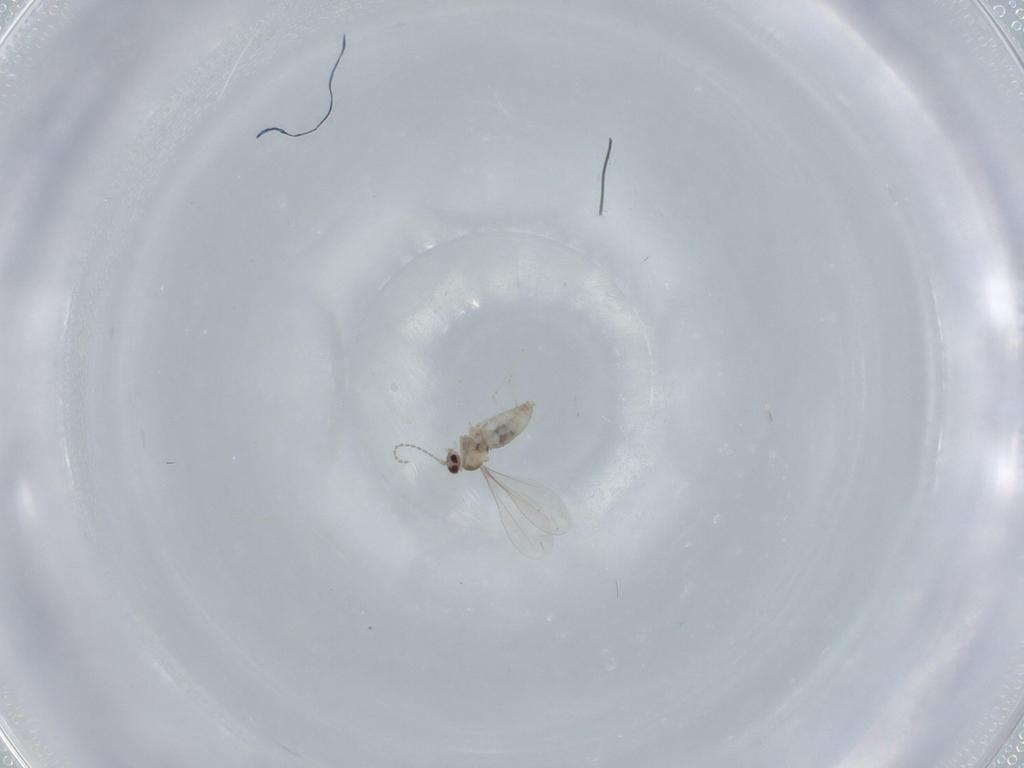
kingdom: Animalia
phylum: Arthropoda
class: Insecta
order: Diptera
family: Cecidomyiidae
